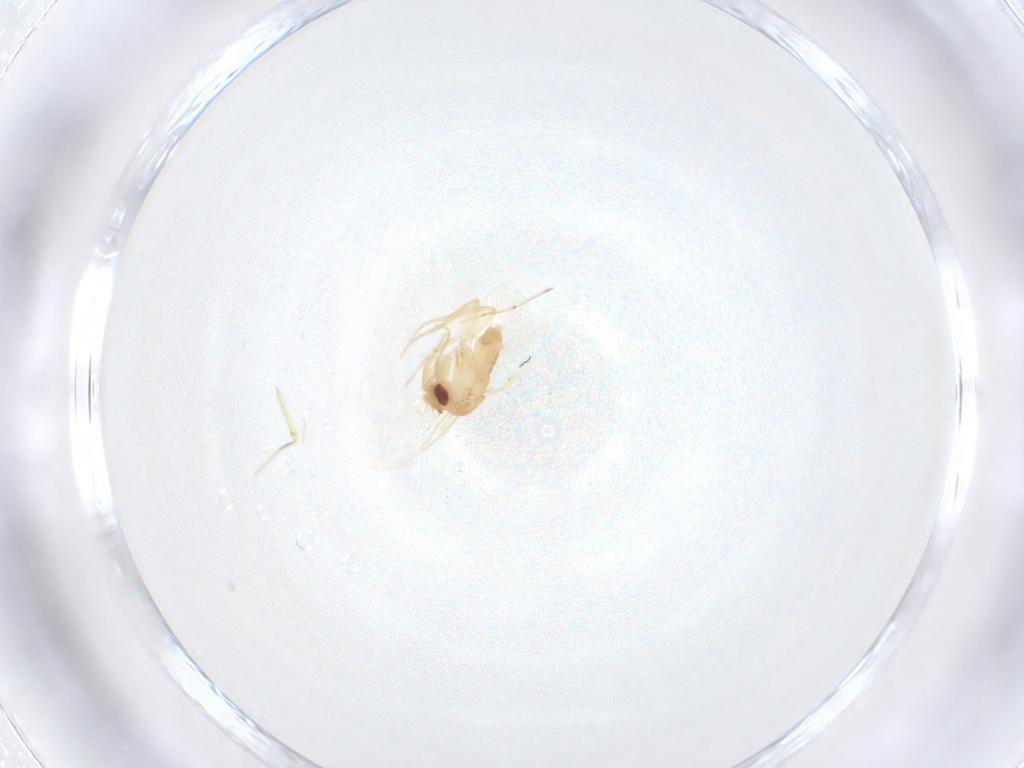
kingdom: Animalia
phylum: Arthropoda
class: Insecta
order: Diptera
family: Phoridae
